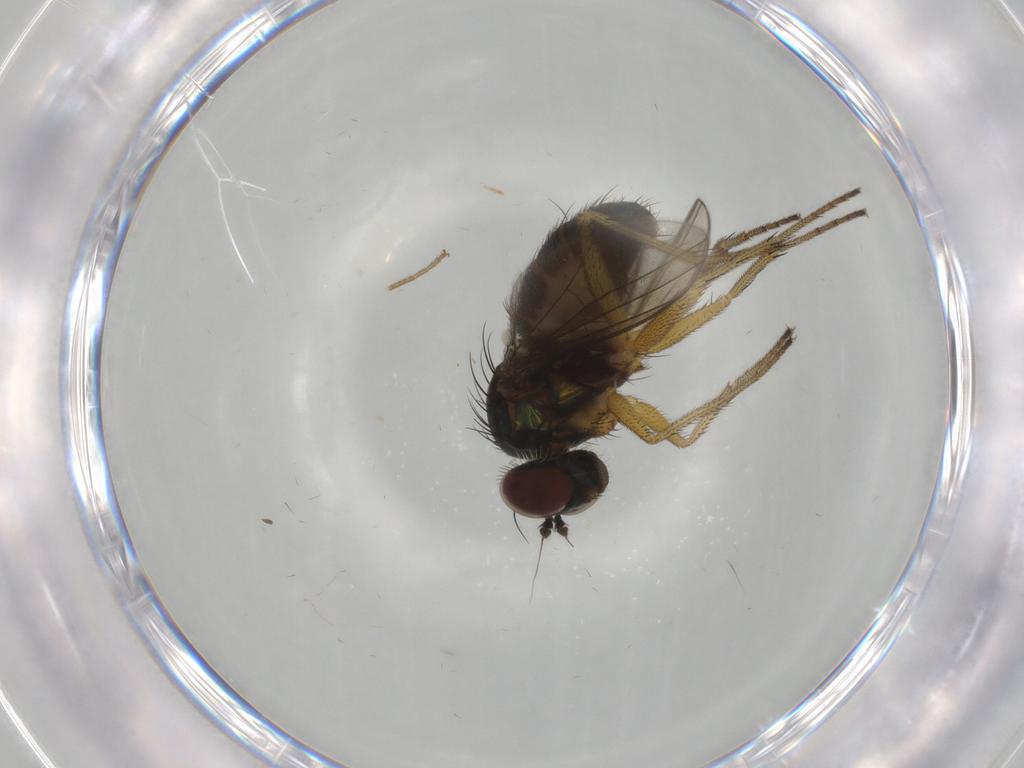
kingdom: Animalia
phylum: Arthropoda
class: Insecta
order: Diptera
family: Dolichopodidae
